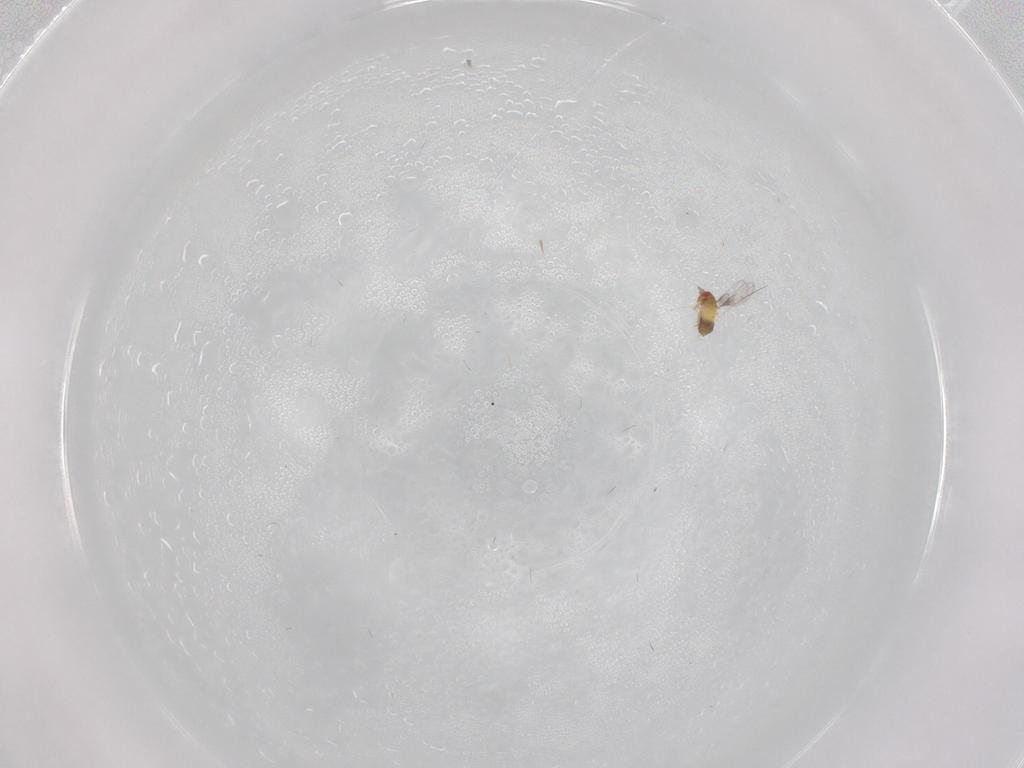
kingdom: Animalia
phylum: Arthropoda
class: Insecta
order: Hymenoptera
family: Trichogrammatidae
